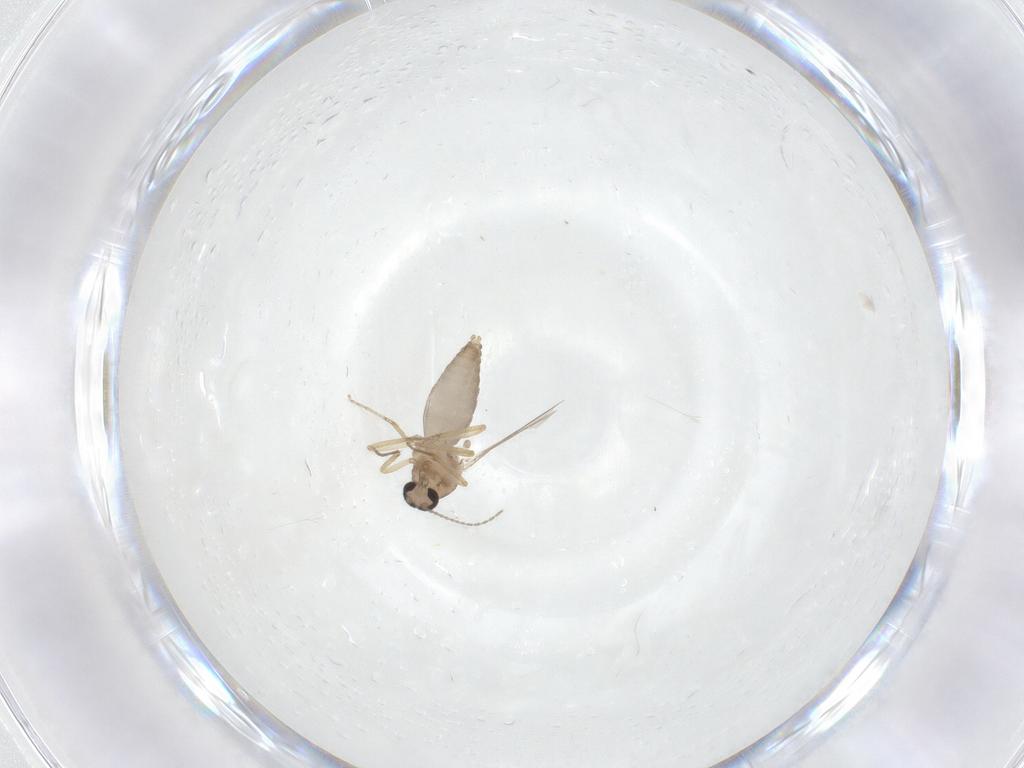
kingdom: Animalia
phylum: Arthropoda
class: Insecta
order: Diptera
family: Ceratopogonidae
